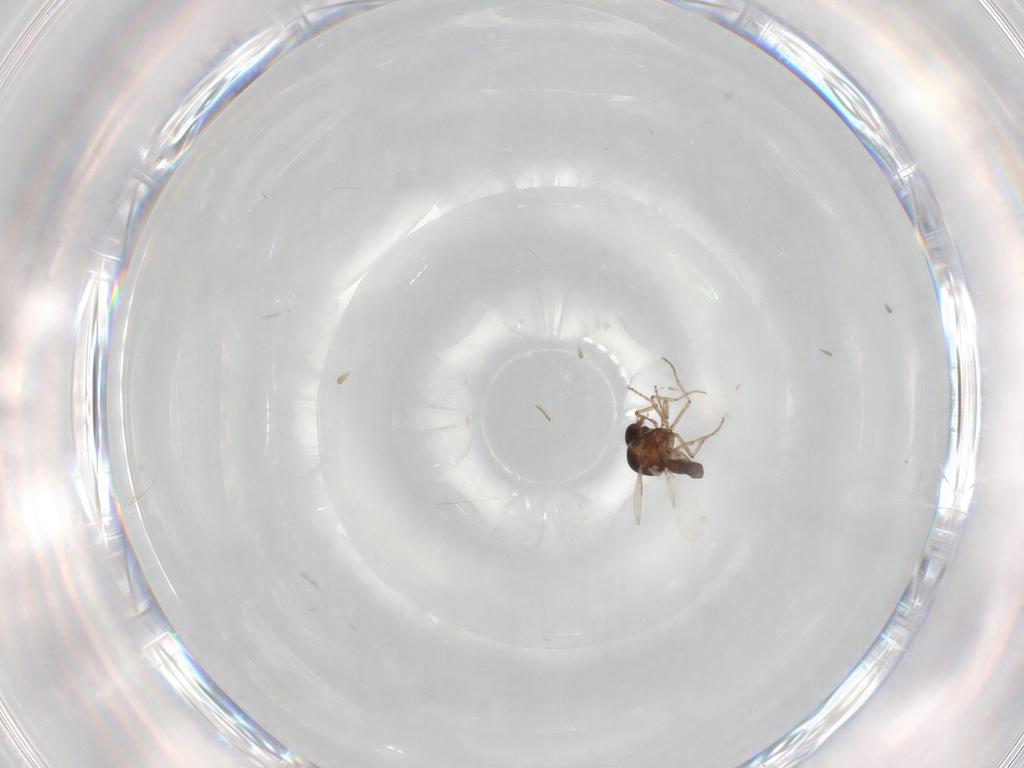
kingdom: Animalia
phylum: Arthropoda
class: Insecta
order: Diptera
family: Ceratopogonidae
